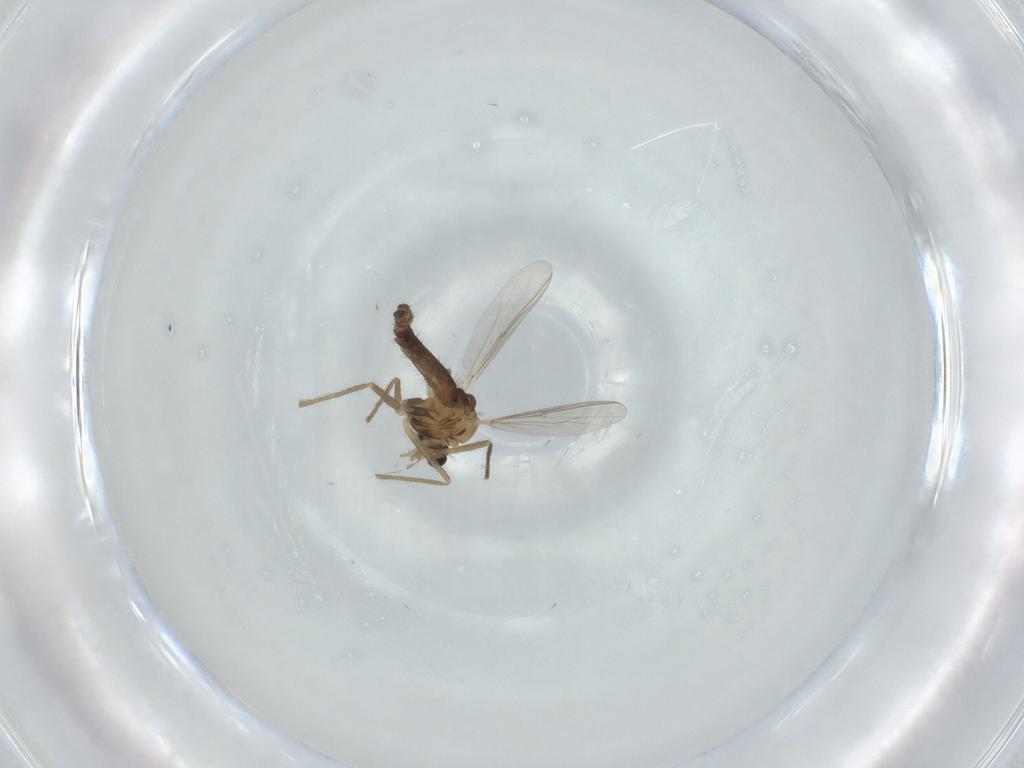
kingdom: Animalia
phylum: Arthropoda
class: Insecta
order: Diptera
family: Chironomidae
